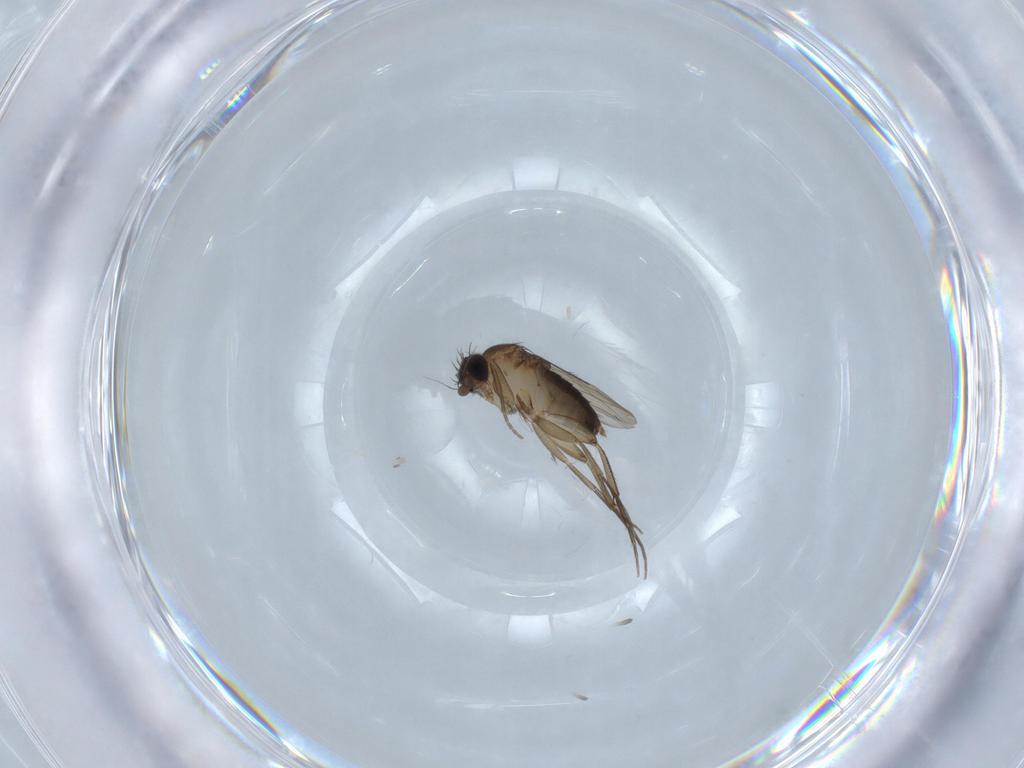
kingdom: Animalia
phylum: Arthropoda
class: Insecta
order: Diptera
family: Phoridae
